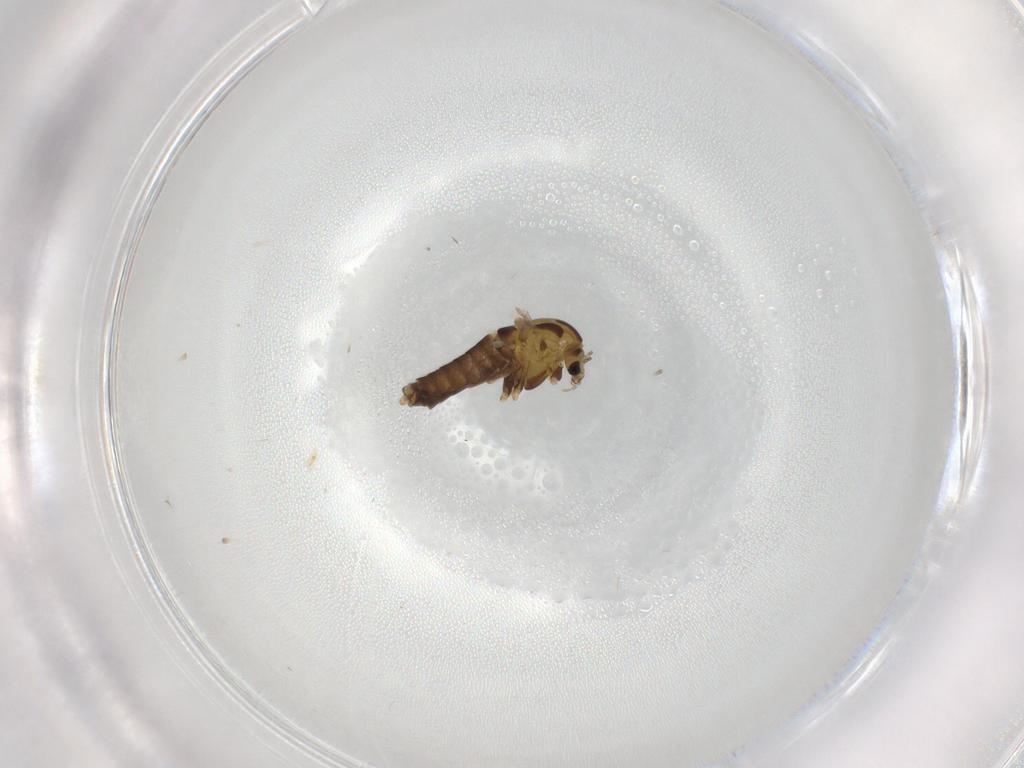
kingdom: Animalia
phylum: Arthropoda
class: Insecta
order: Diptera
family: Chironomidae
